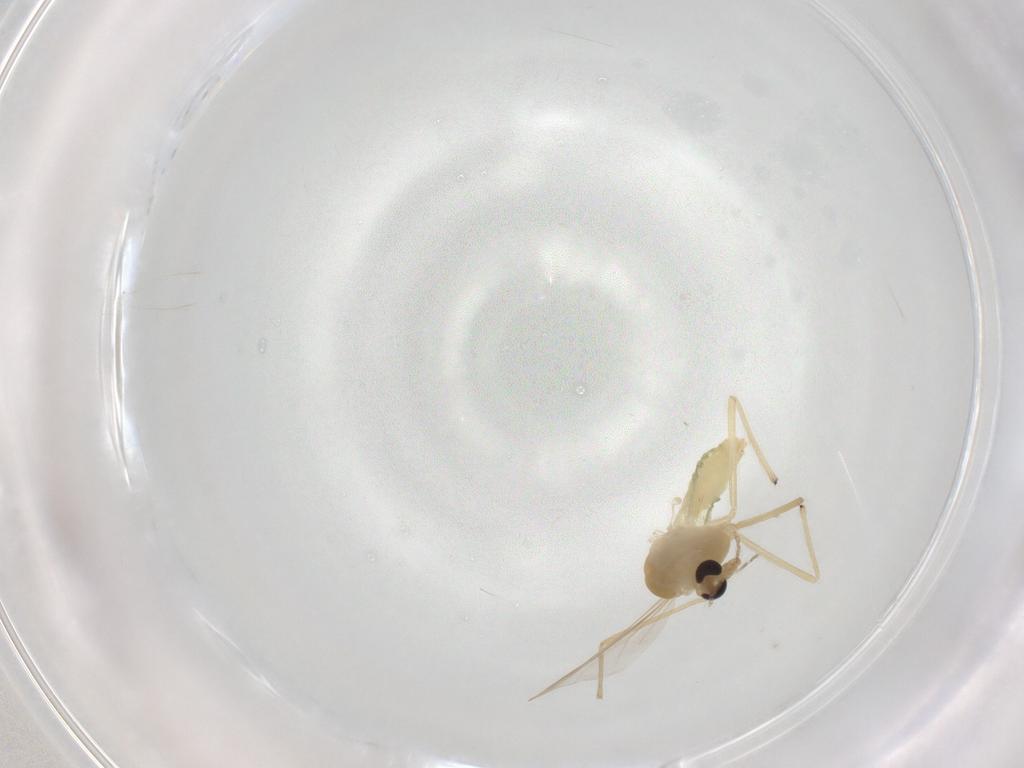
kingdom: Animalia
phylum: Arthropoda
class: Insecta
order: Diptera
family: Chironomidae
